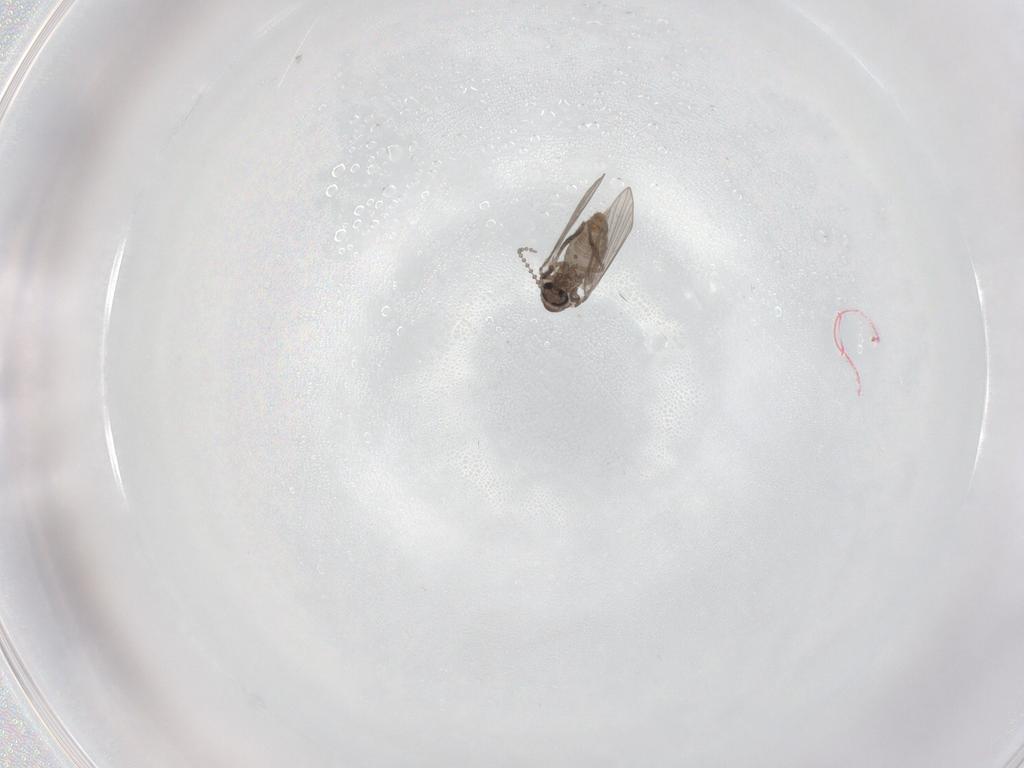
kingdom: Animalia
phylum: Arthropoda
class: Insecta
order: Diptera
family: Psychodidae
